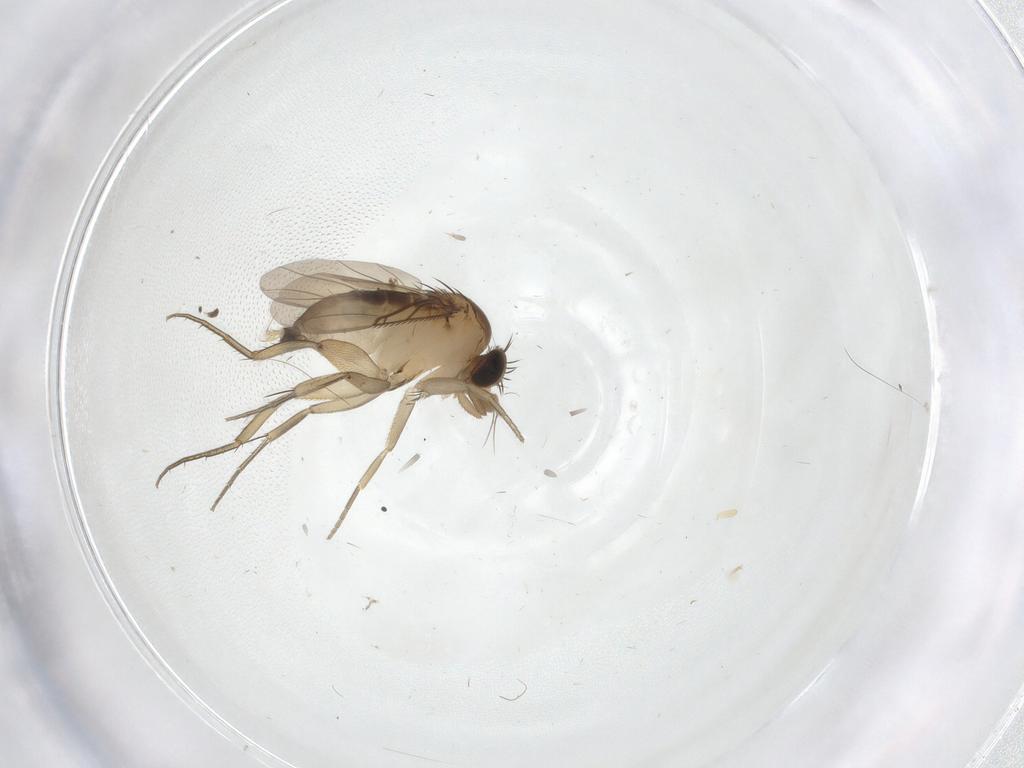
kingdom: Animalia
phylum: Arthropoda
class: Insecta
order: Diptera
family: Phoridae
